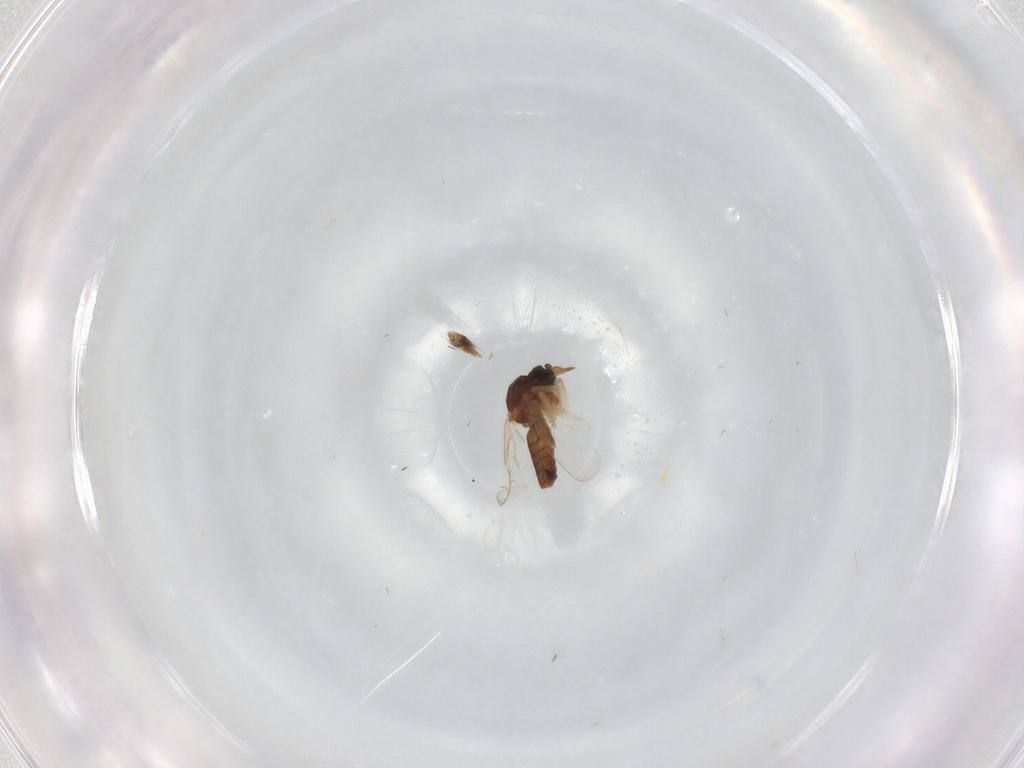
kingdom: Animalia
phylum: Arthropoda
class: Insecta
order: Diptera
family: Ceratopogonidae
